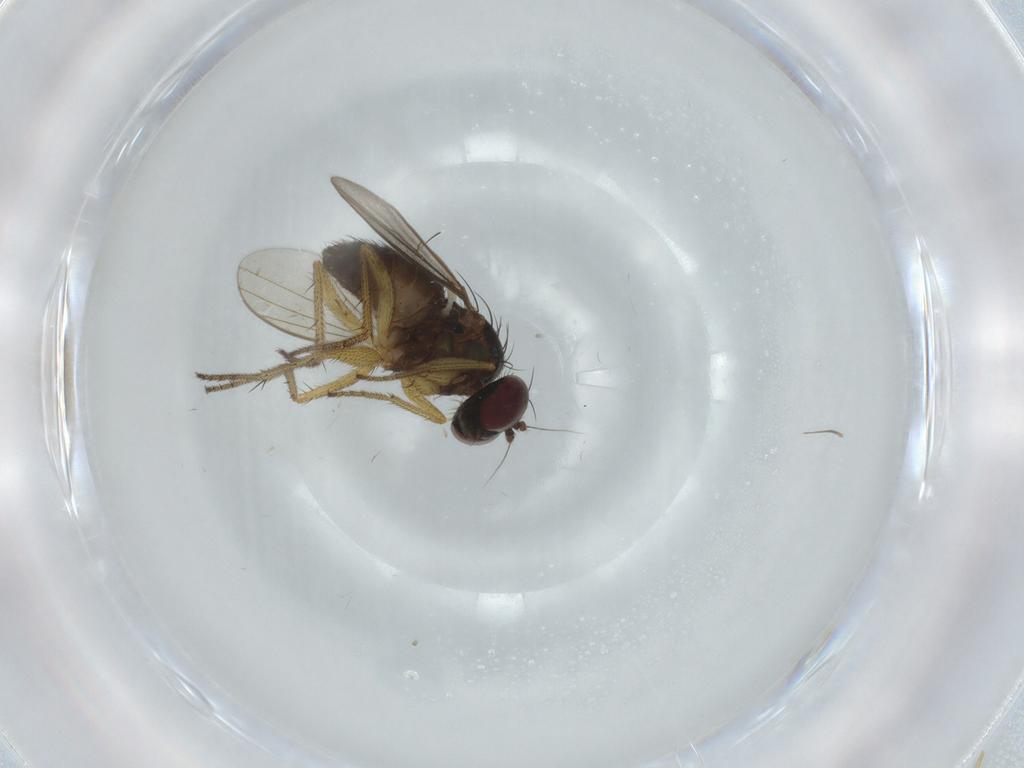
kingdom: Animalia
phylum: Arthropoda
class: Insecta
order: Diptera
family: Dolichopodidae
